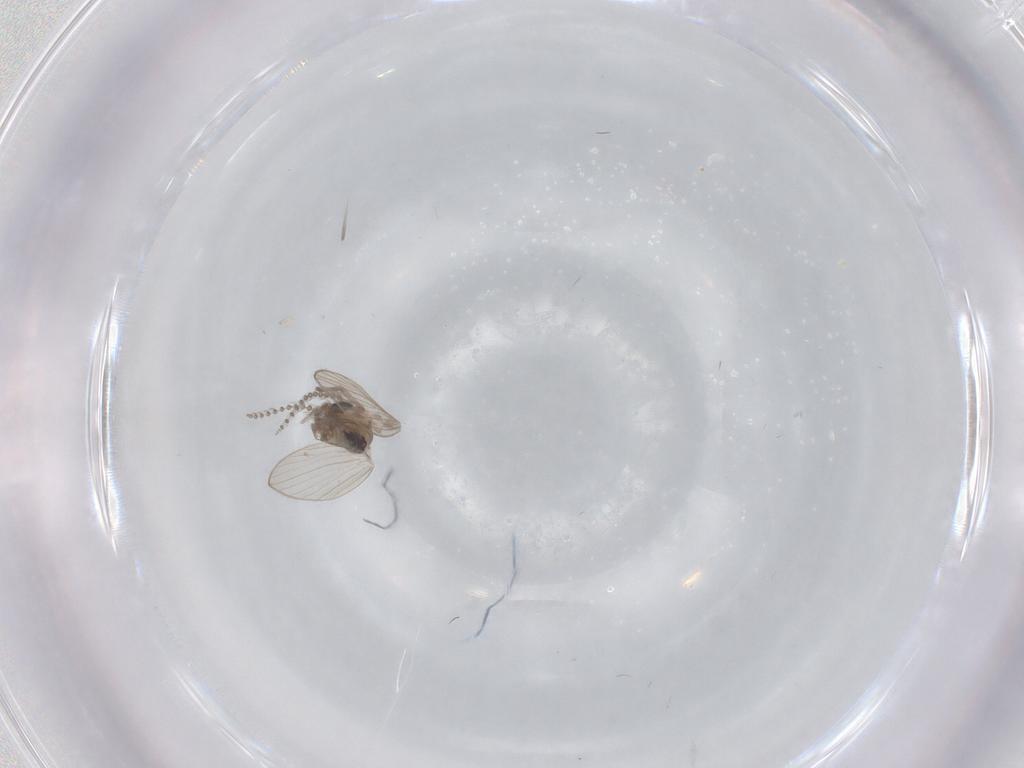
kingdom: Animalia
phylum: Arthropoda
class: Insecta
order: Diptera
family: Psychodidae
